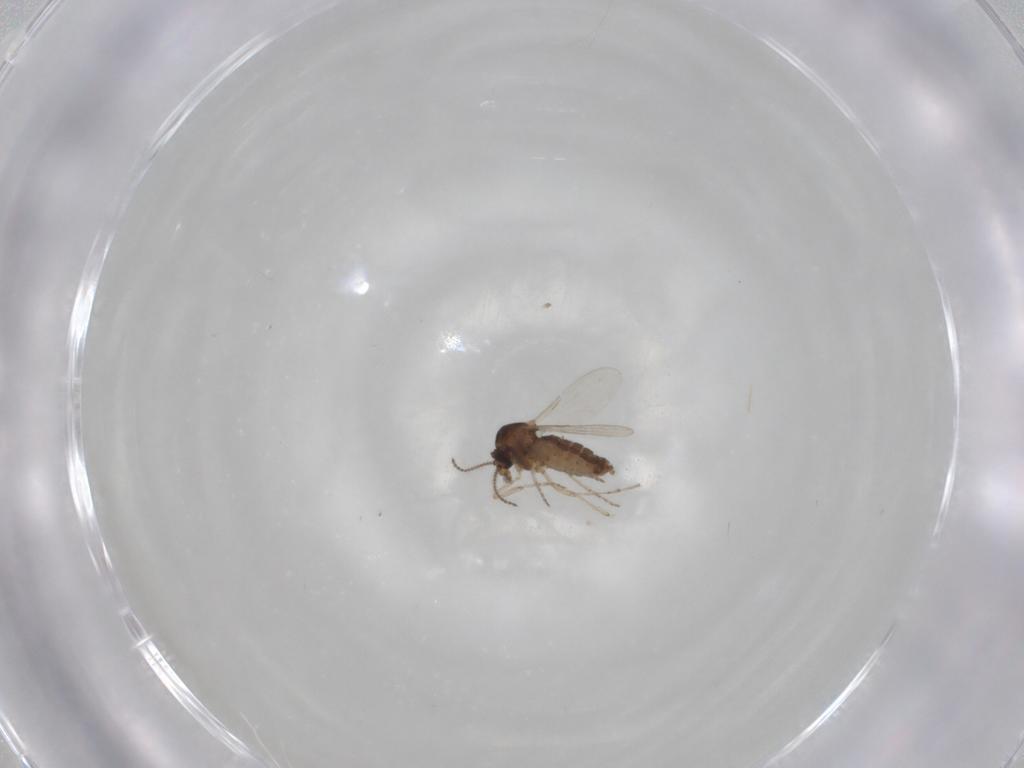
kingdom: Animalia
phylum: Arthropoda
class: Insecta
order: Diptera
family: Ceratopogonidae
